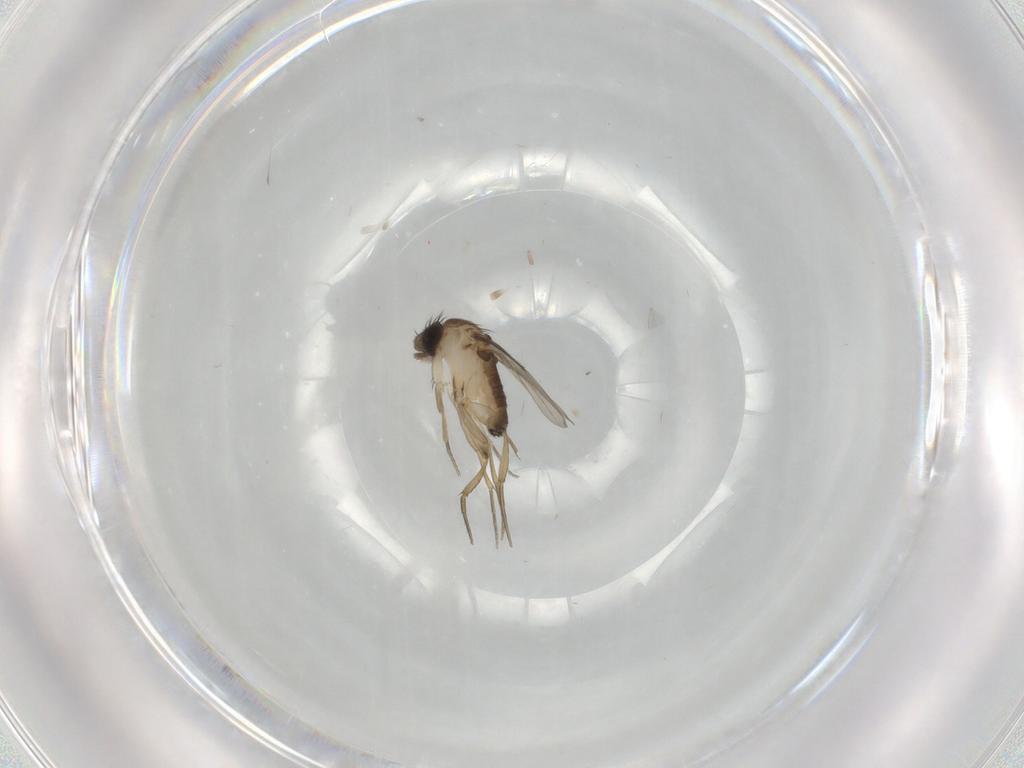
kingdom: Animalia
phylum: Arthropoda
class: Insecta
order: Diptera
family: Phoridae
